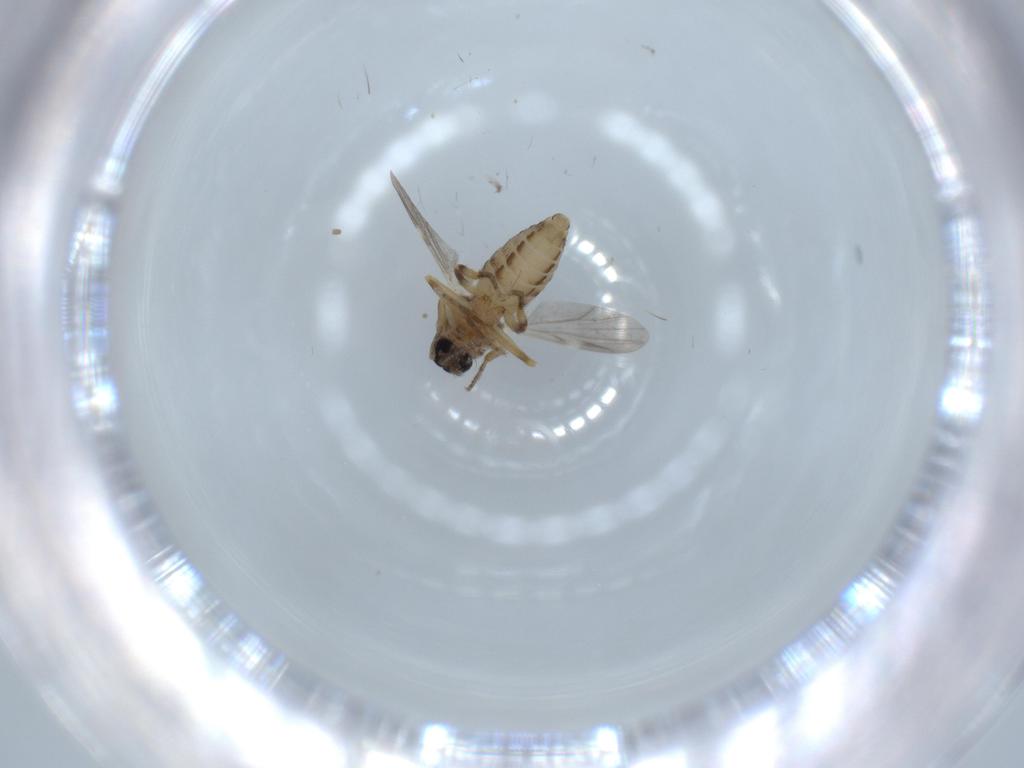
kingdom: Animalia
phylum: Arthropoda
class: Insecta
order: Diptera
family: Ceratopogonidae
